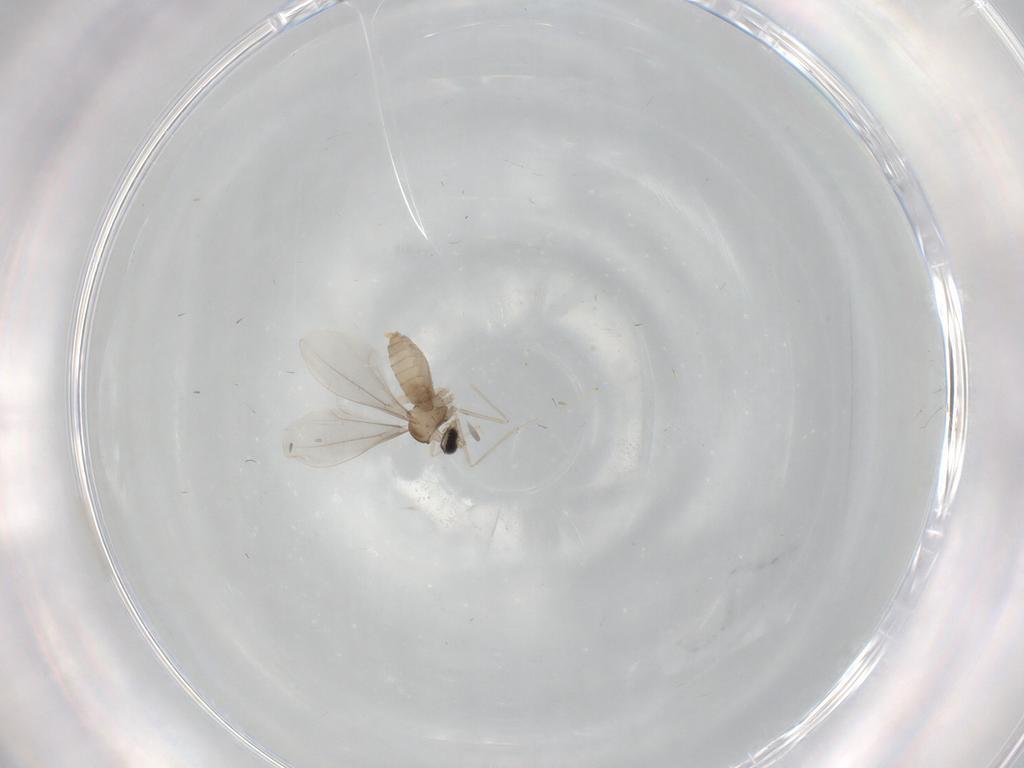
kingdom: Animalia
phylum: Arthropoda
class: Insecta
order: Diptera
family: Cecidomyiidae
